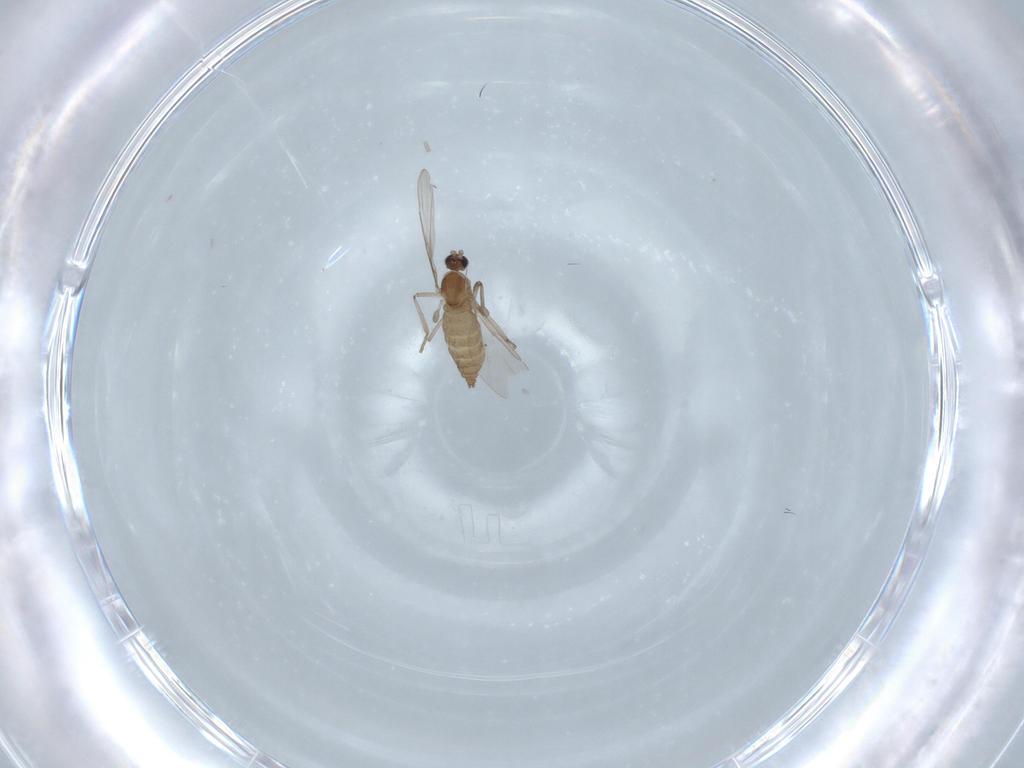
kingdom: Animalia
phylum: Arthropoda
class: Insecta
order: Diptera
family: Cecidomyiidae
